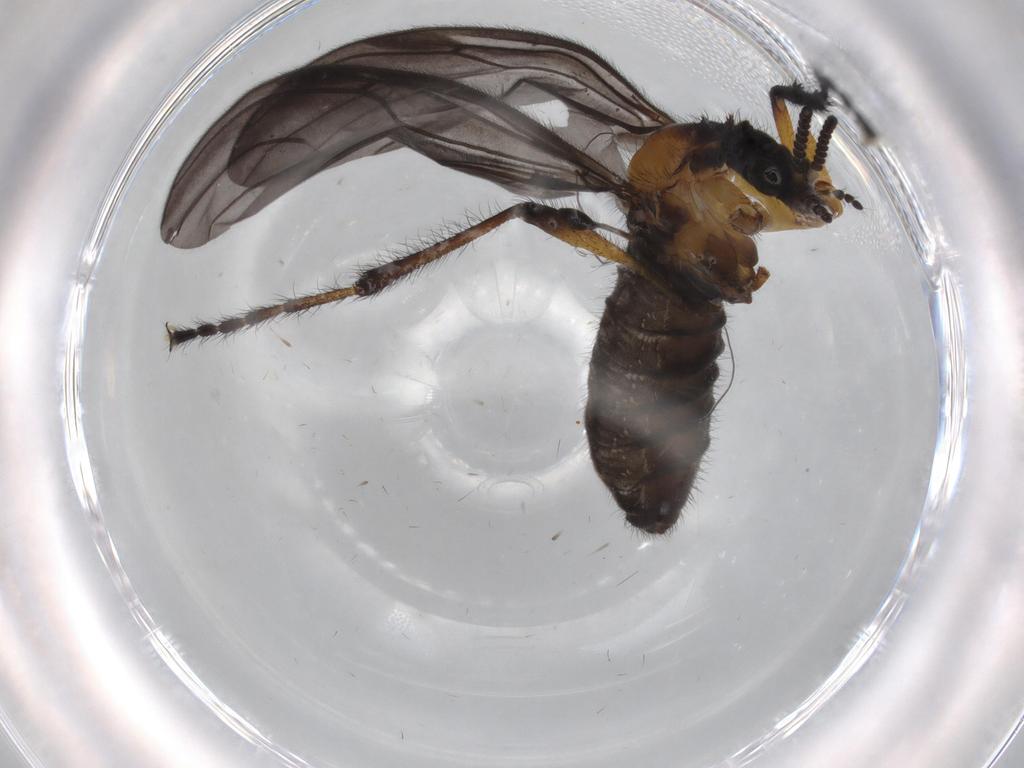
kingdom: Animalia
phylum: Arthropoda
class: Insecta
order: Diptera
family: Bibionidae
